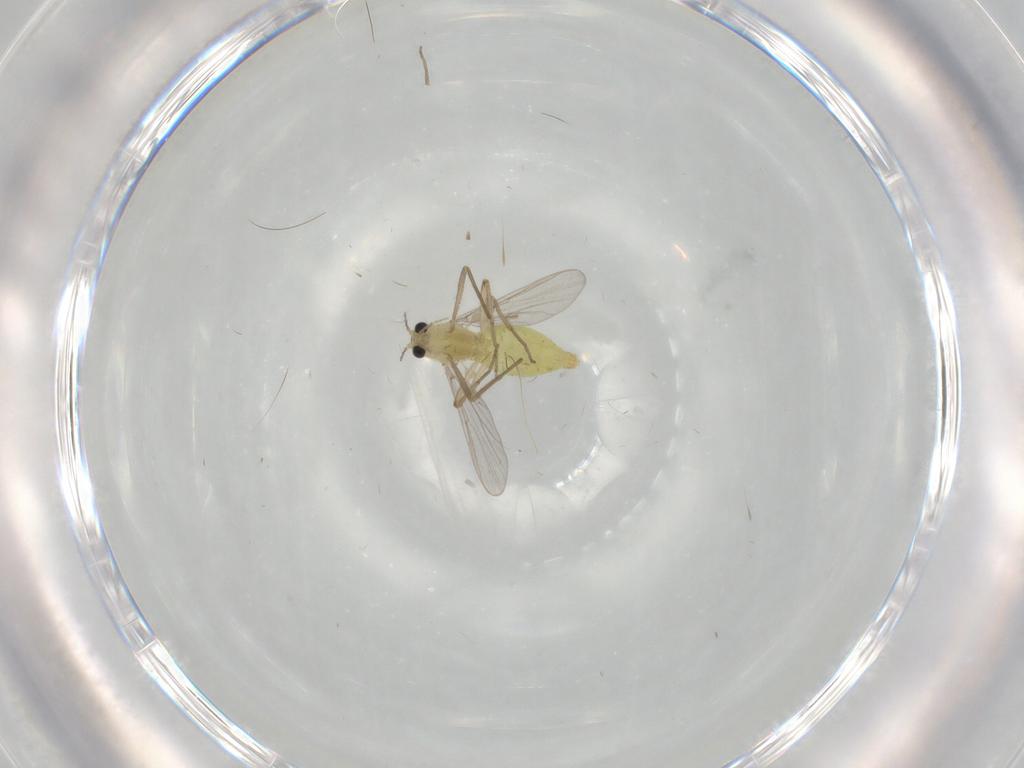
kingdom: Animalia
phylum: Arthropoda
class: Insecta
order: Diptera
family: Chironomidae
